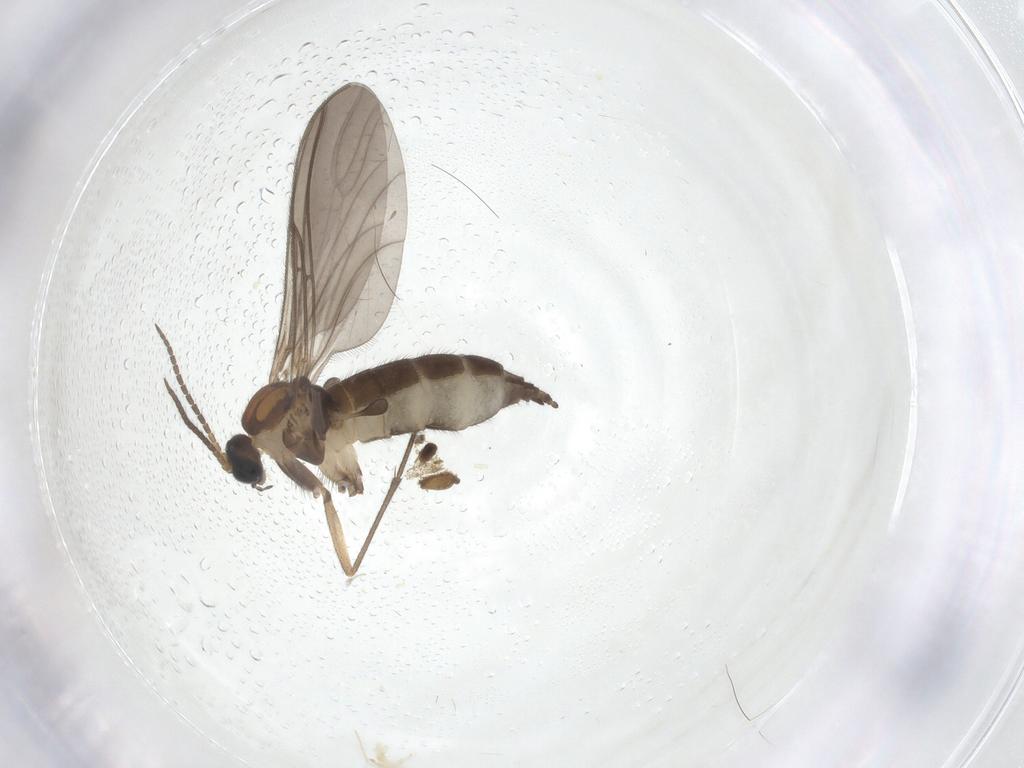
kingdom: Animalia
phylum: Arthropoda
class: Insecta
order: Diptera
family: Sciaridae
